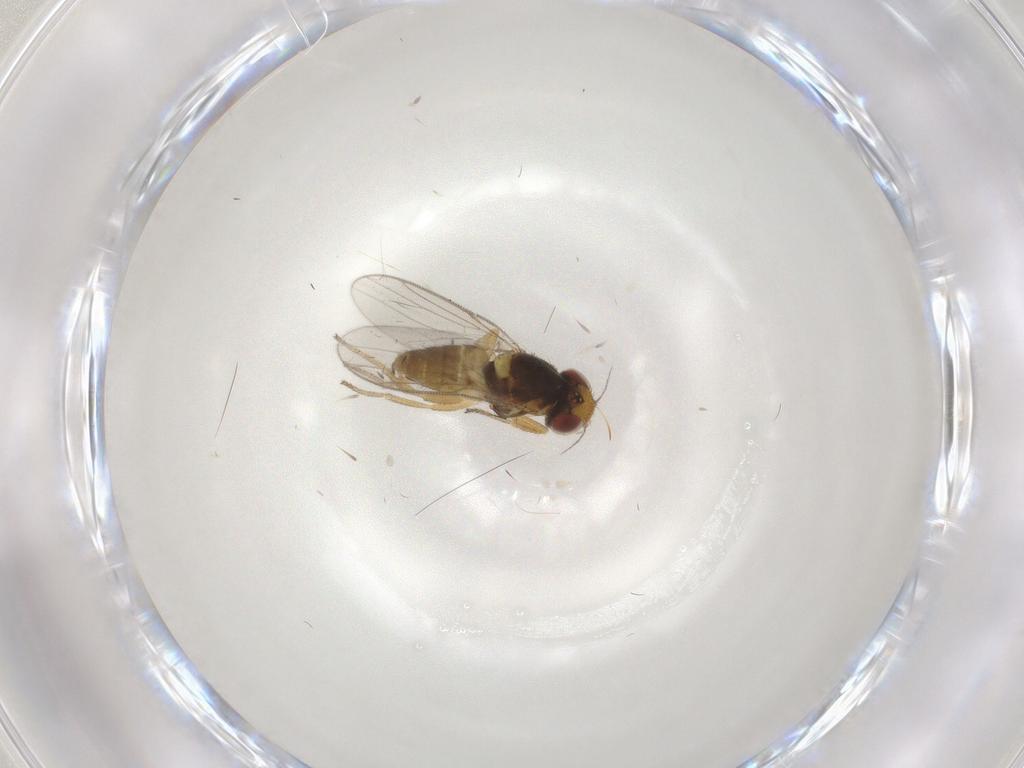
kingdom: Animalia
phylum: Arthropoda
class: Insecta
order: Diptera
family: Chloropidae
